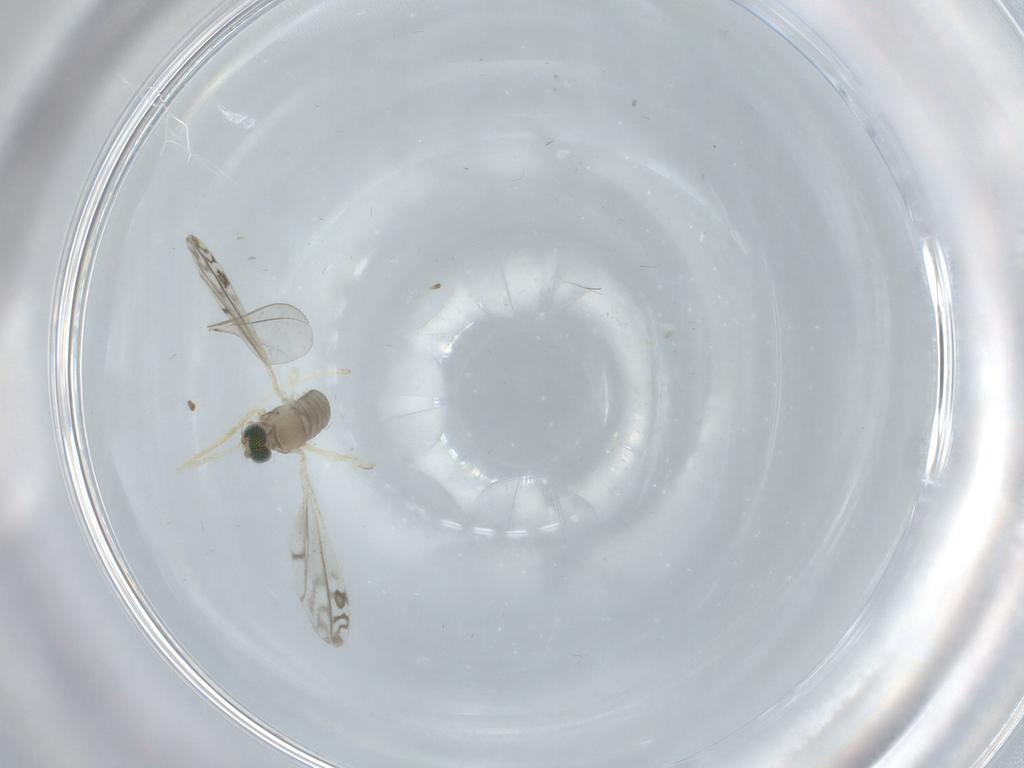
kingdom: Animalia
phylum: Arthropoda
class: Insecta
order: Diptera
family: Cecidomyiidae
